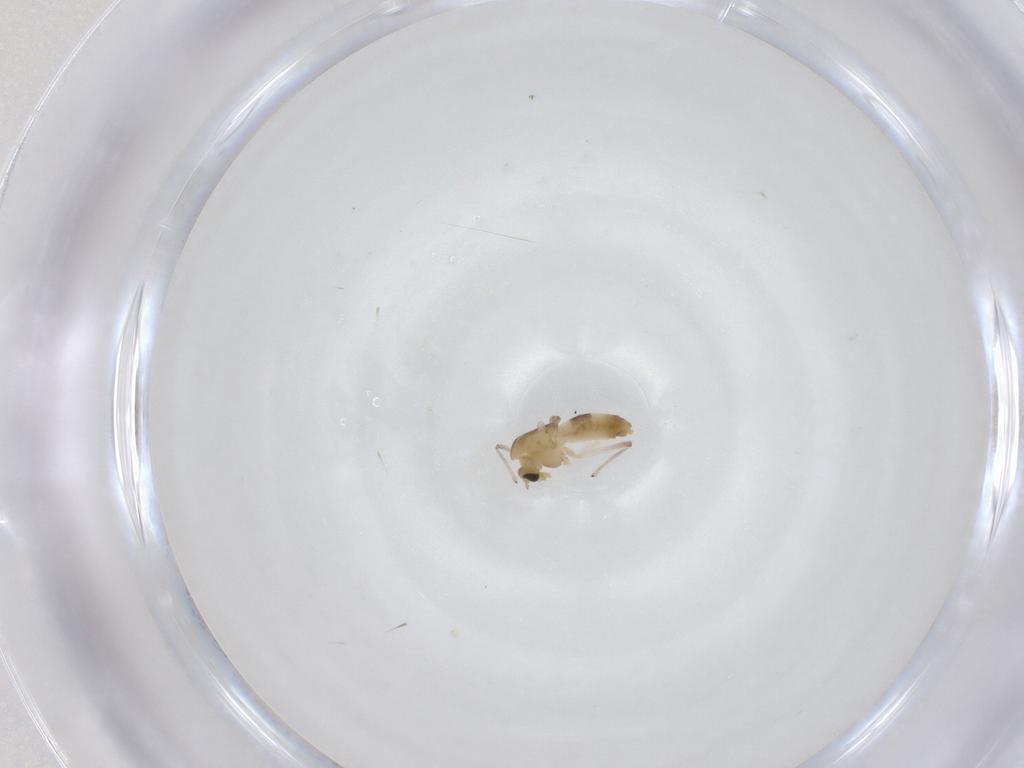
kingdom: Animalia
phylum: Arthropoda
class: Insecta
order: Diptera
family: Chironomidae
